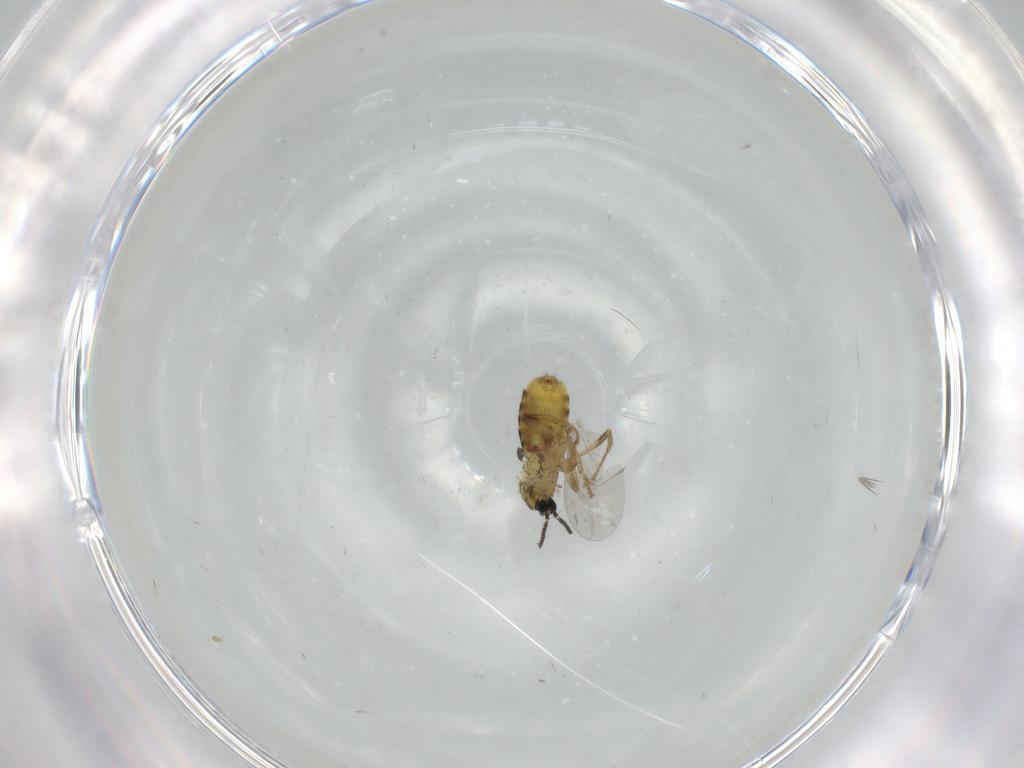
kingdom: Animalia
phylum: Arthropoda
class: Insecta
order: Diptera
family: Scatopsidae
